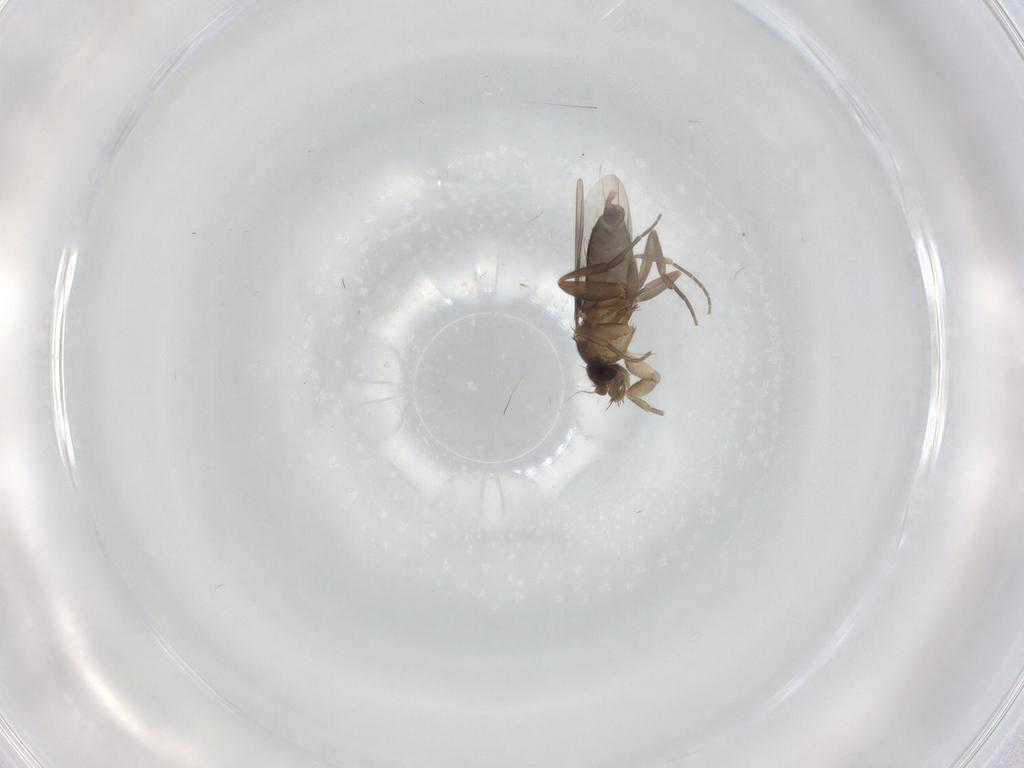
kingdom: Animalia
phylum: Arthropoda
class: Insecta
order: Diptera
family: Phoridae
